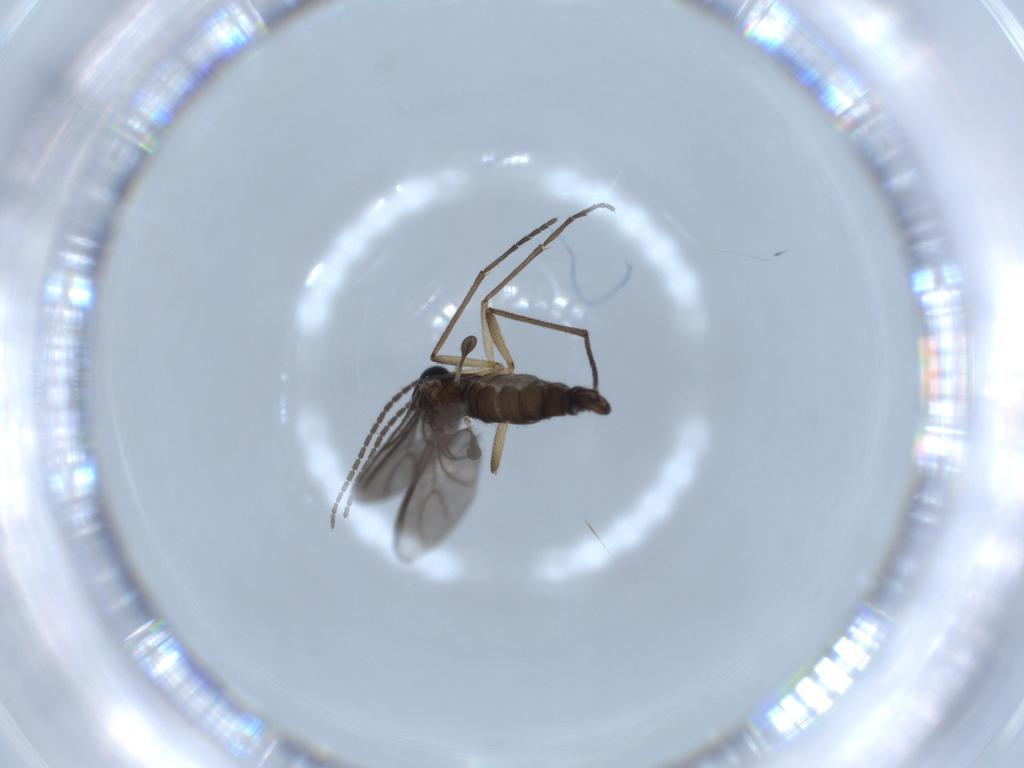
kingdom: Animalia
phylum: Arthropoda
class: Insecta
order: Diptera
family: Sciaridae
